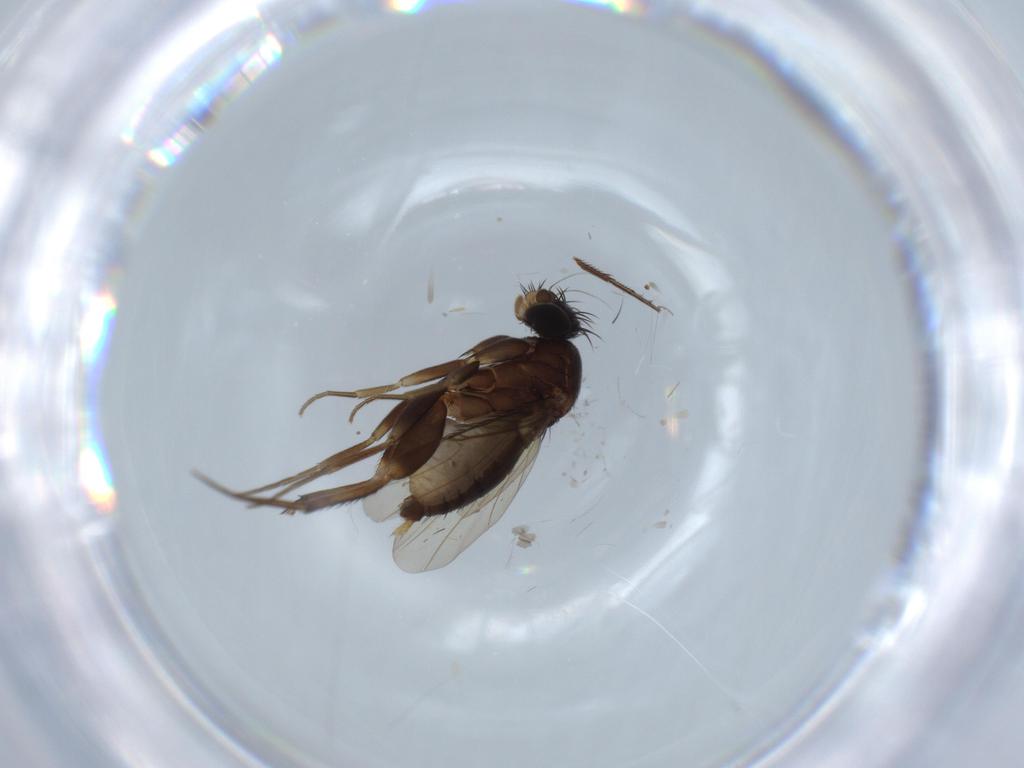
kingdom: Animalia
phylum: Arthropoda
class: Insecta
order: Diptera
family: Phoridae
